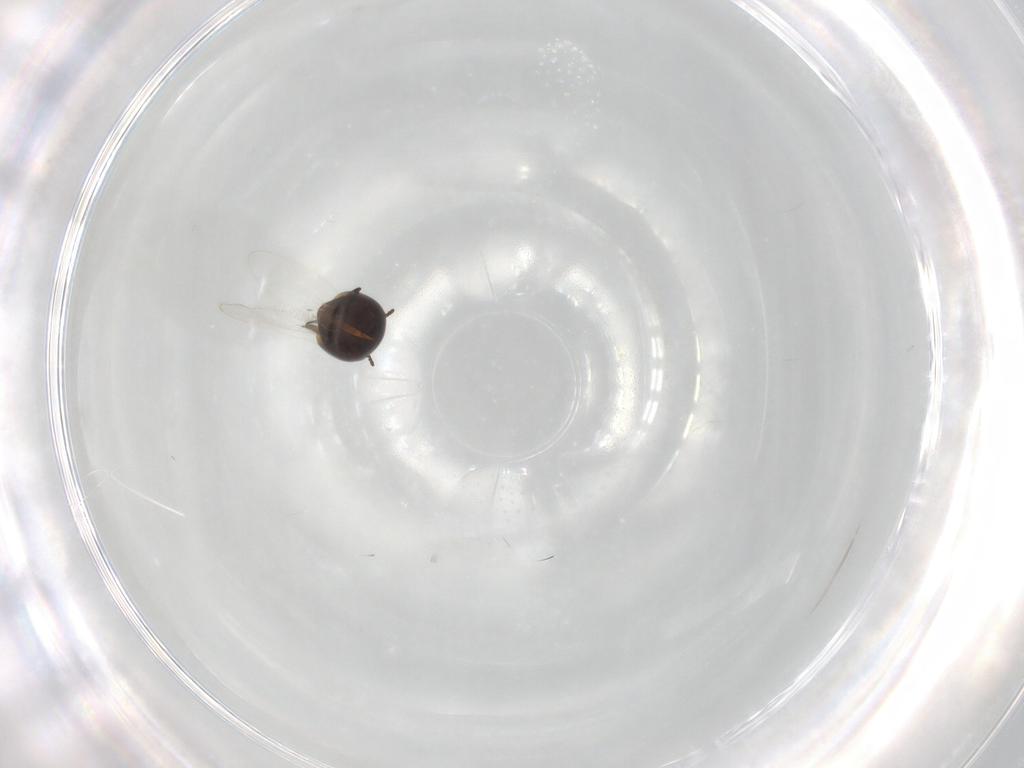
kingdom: Animalia
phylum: Arthropoda
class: Insecta
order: Coleoptera
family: Corylophidae
